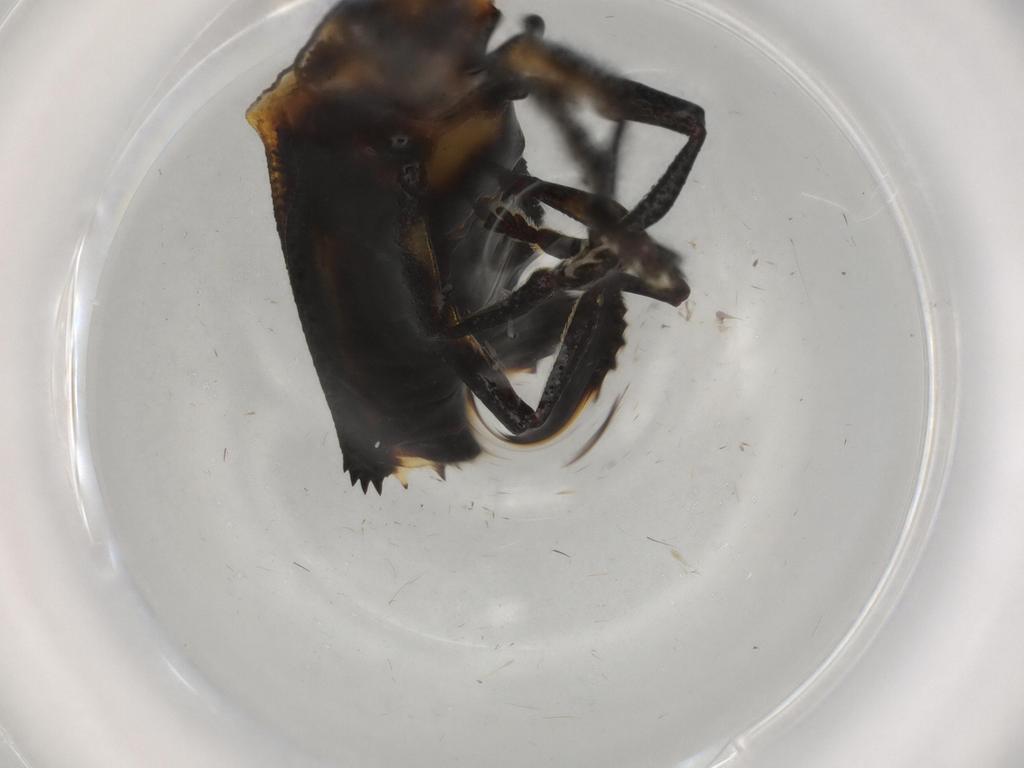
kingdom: Animalia
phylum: Arthropoda
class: Insecta
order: Coleoptera
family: Chrysomelidae
